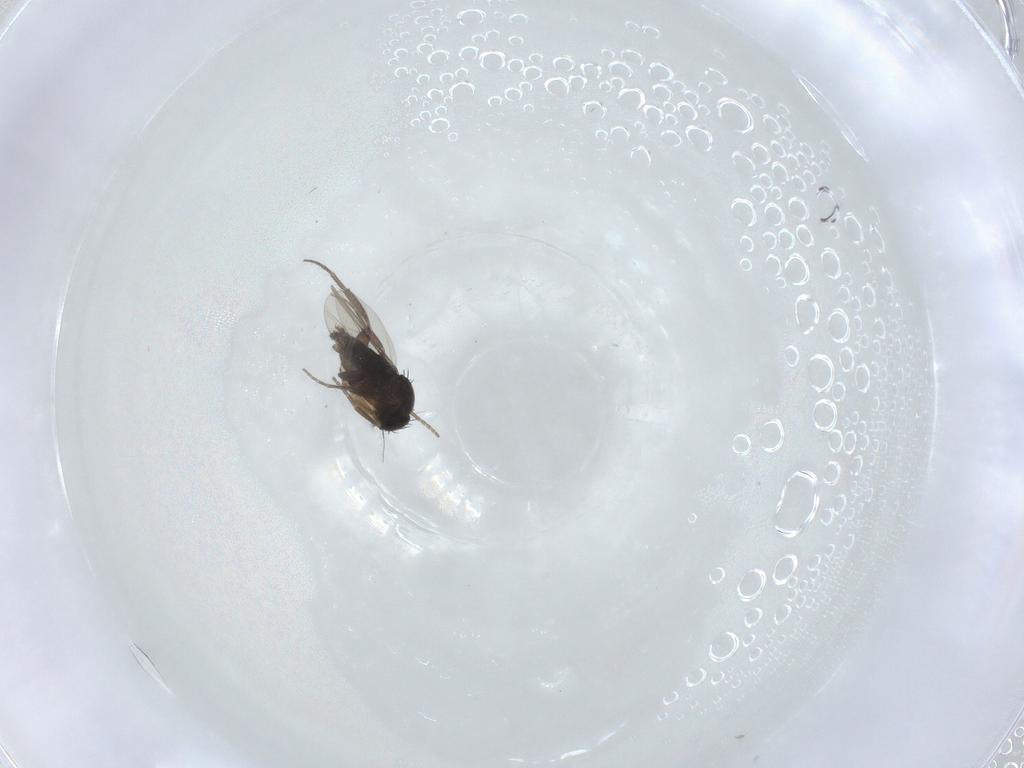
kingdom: Animalia
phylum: Arthropoda
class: Insecta
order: Diptera
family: Phoridae
